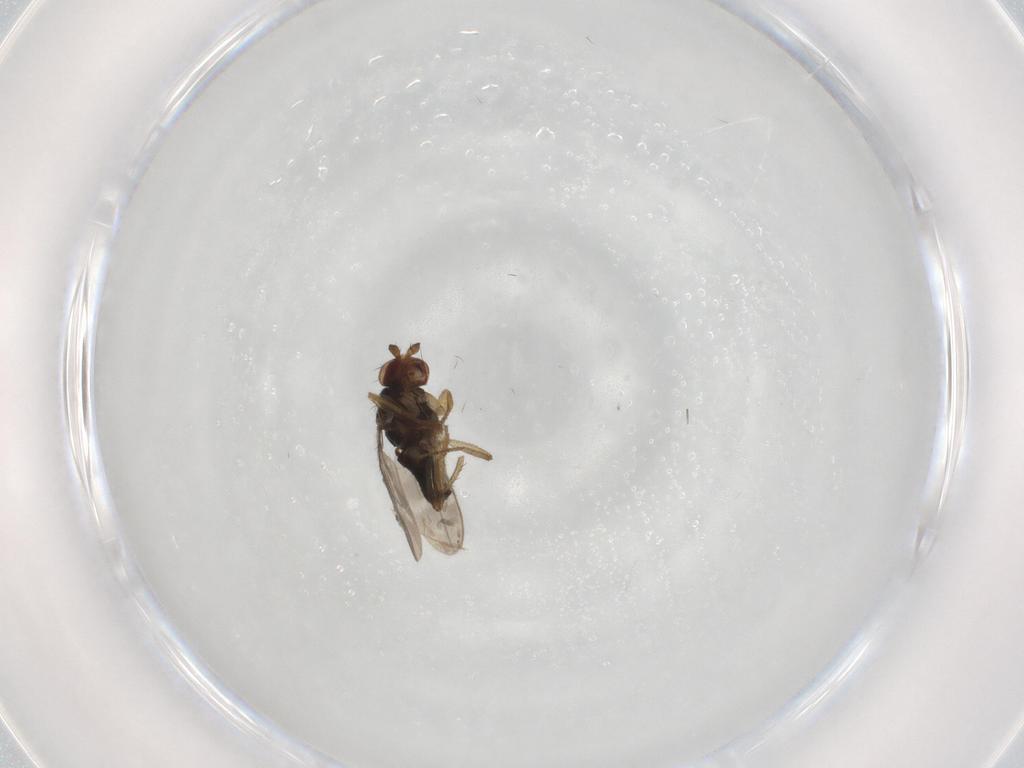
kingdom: Animalia
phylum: Arthropoda
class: Insecta
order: Diptera
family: Sphaeroceridae
